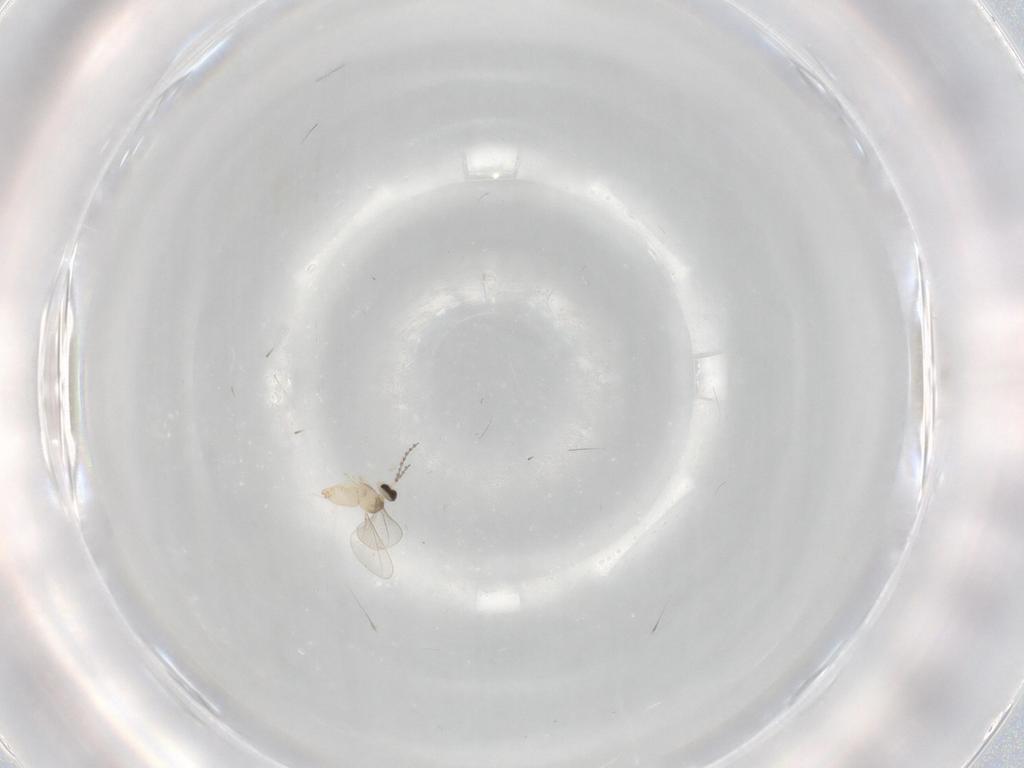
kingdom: Animalia
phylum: Arthropoda
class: Insecta
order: Diptera
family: Cecidomyiidae
